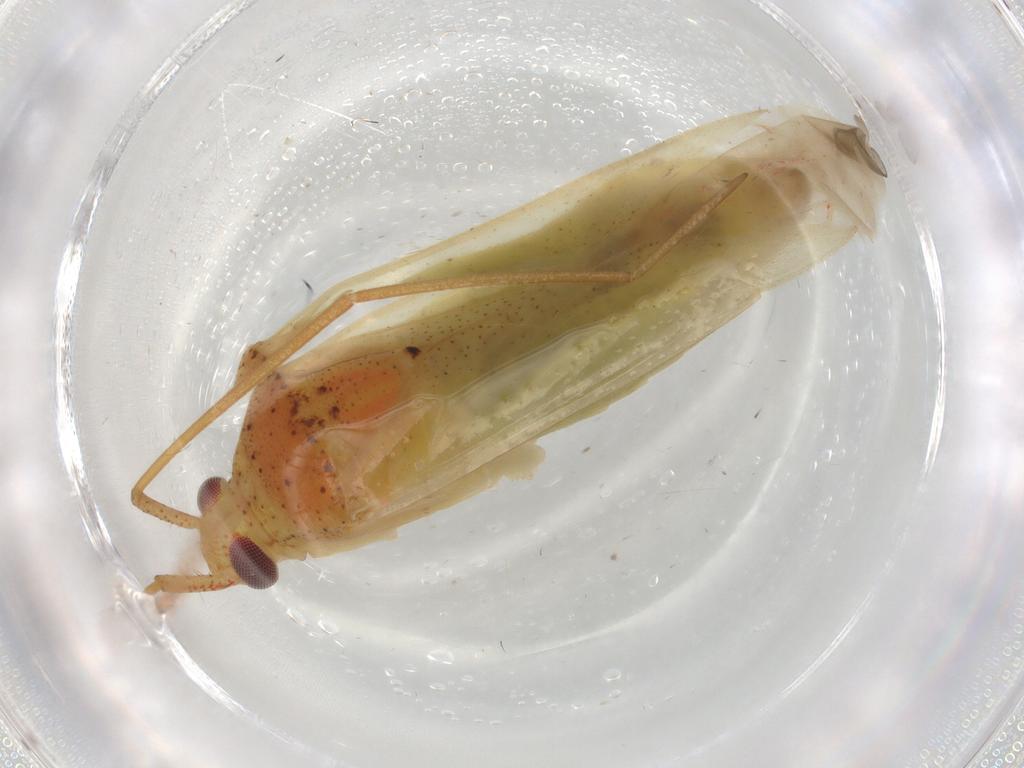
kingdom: Animalia
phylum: Arthropoda
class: Insecta
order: Hemiptera
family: Miridae
